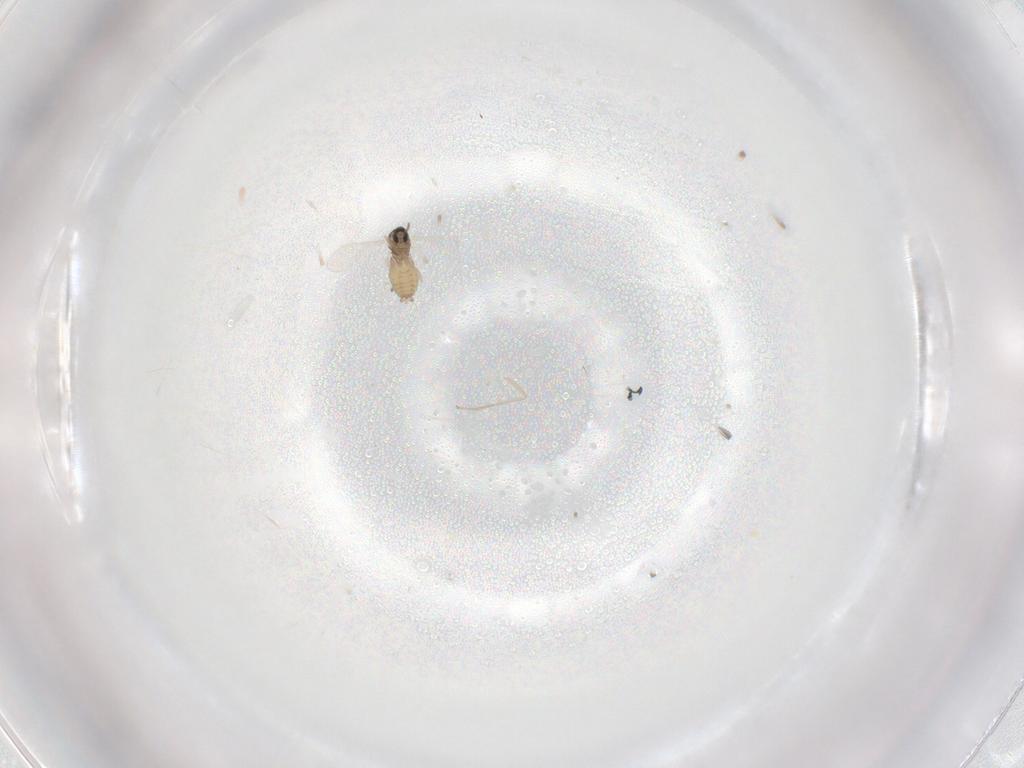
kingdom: Animalia
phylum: Arthropoda
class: Insecta
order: Diptera
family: Cecidomyiidae
